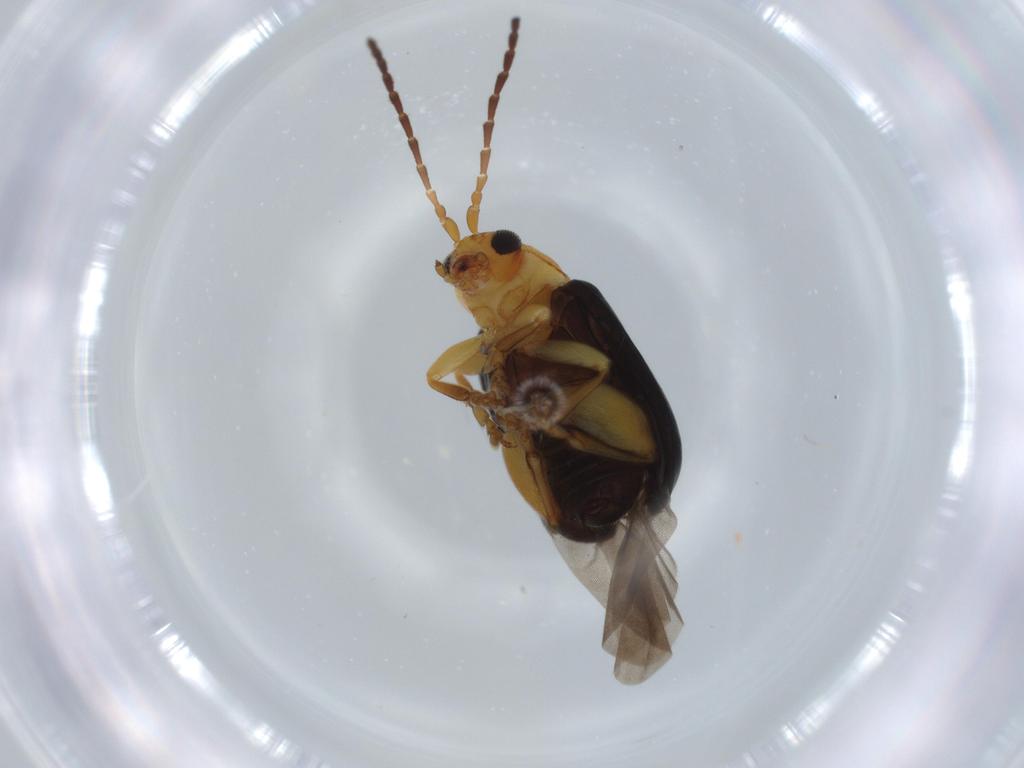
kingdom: Animalia
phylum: Arthropoda
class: Insecta
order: Coleoptera
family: Chrysomelidae
